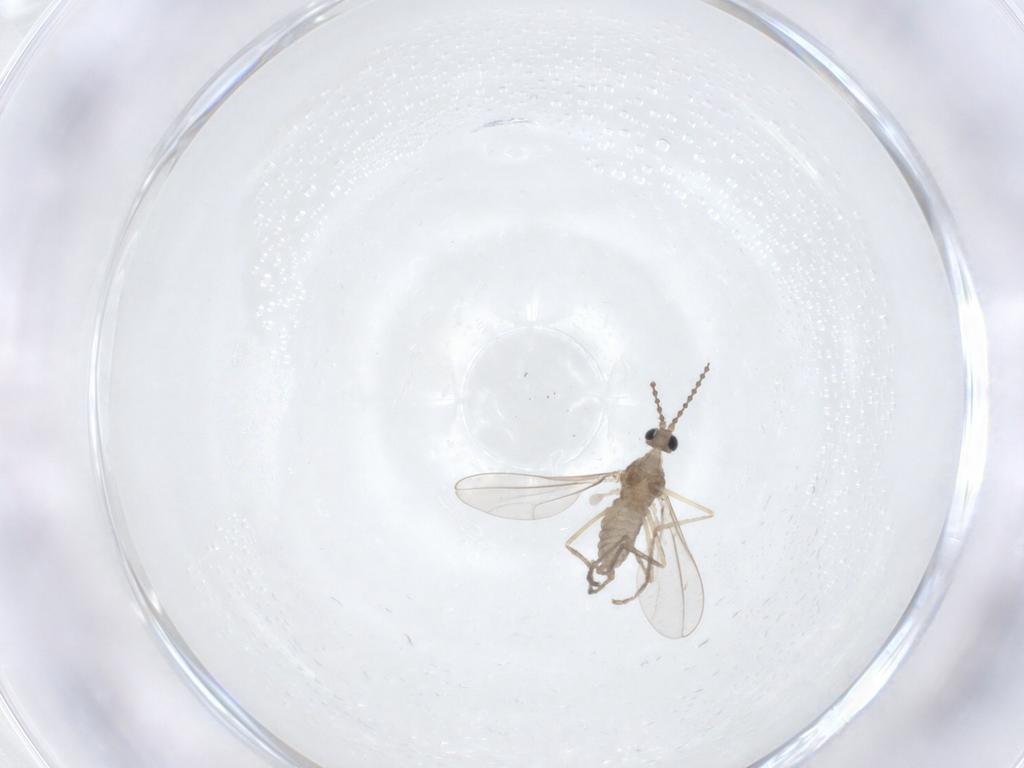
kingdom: Animalia
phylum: Arthropoda
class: Insecta
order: Diptera
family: Cecidomyiidae
